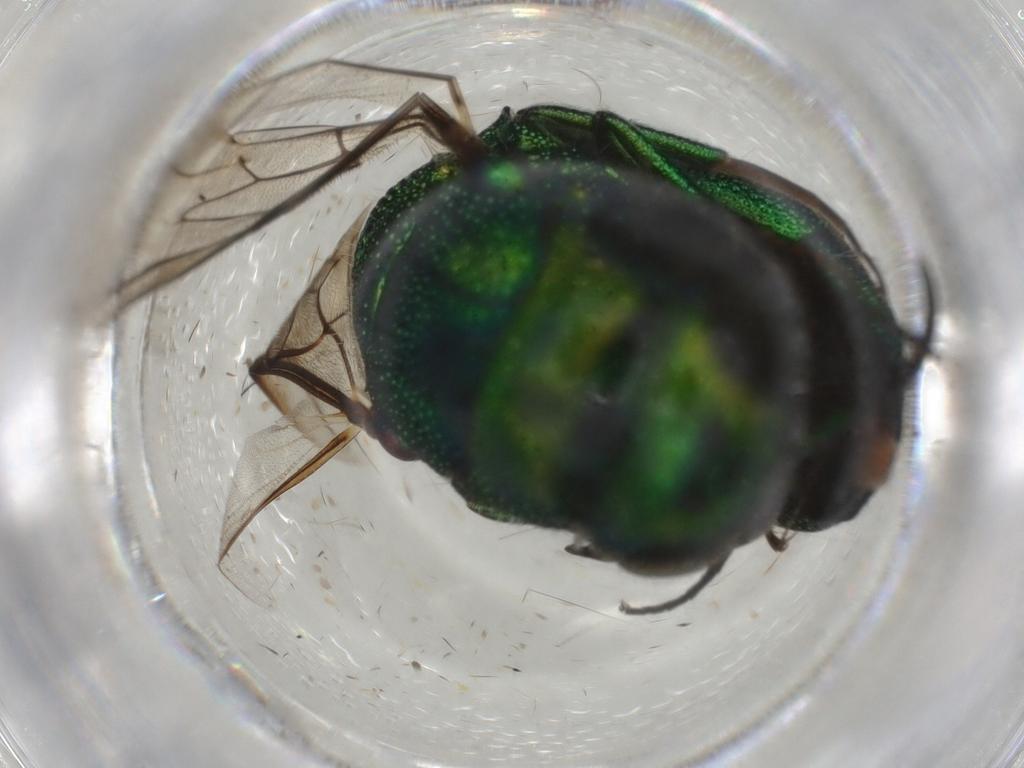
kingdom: Animalia
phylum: Arthropoda
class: Insecta
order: Hymenoptera
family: Chrysididae
